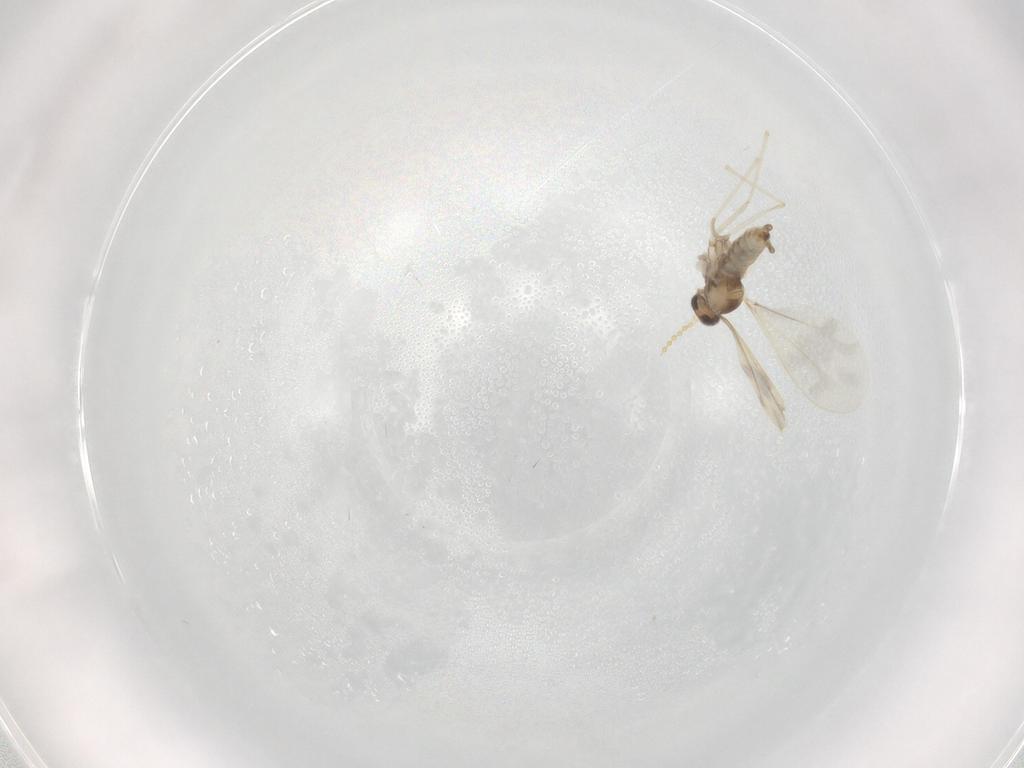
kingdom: Animalia
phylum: Arthropoda
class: Insecta
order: Diptera
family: Cecidomyiidae
